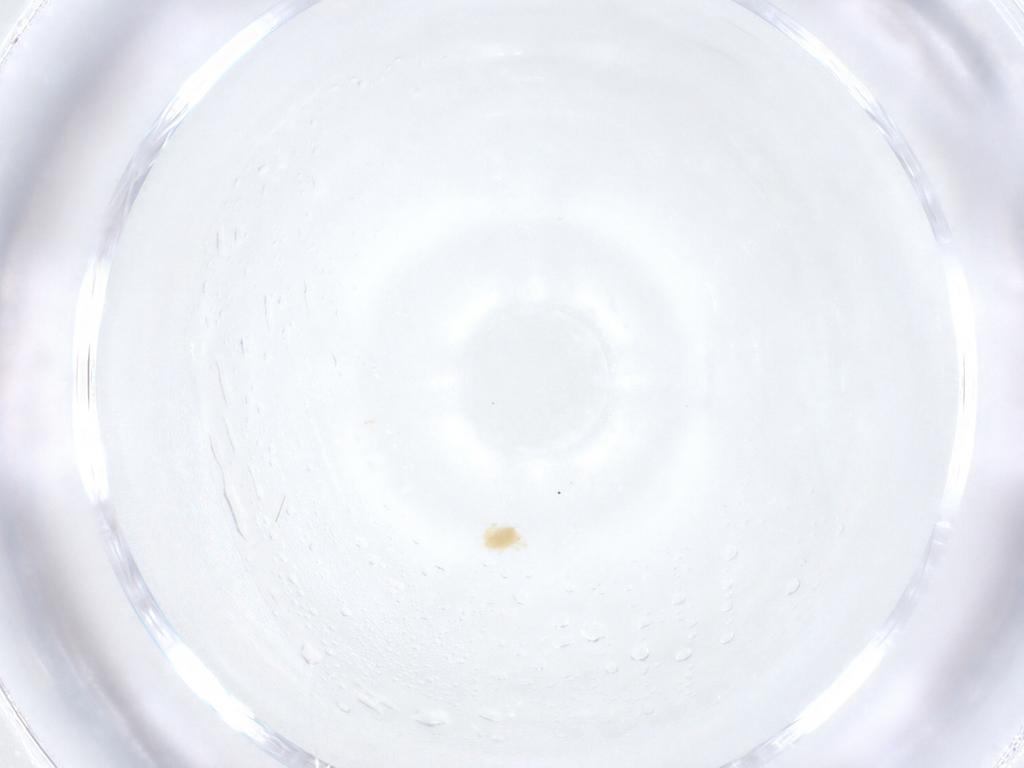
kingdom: Animalia
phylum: Arthropoda
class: Arachnida
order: Trombidiformes
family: Tetranychidae
